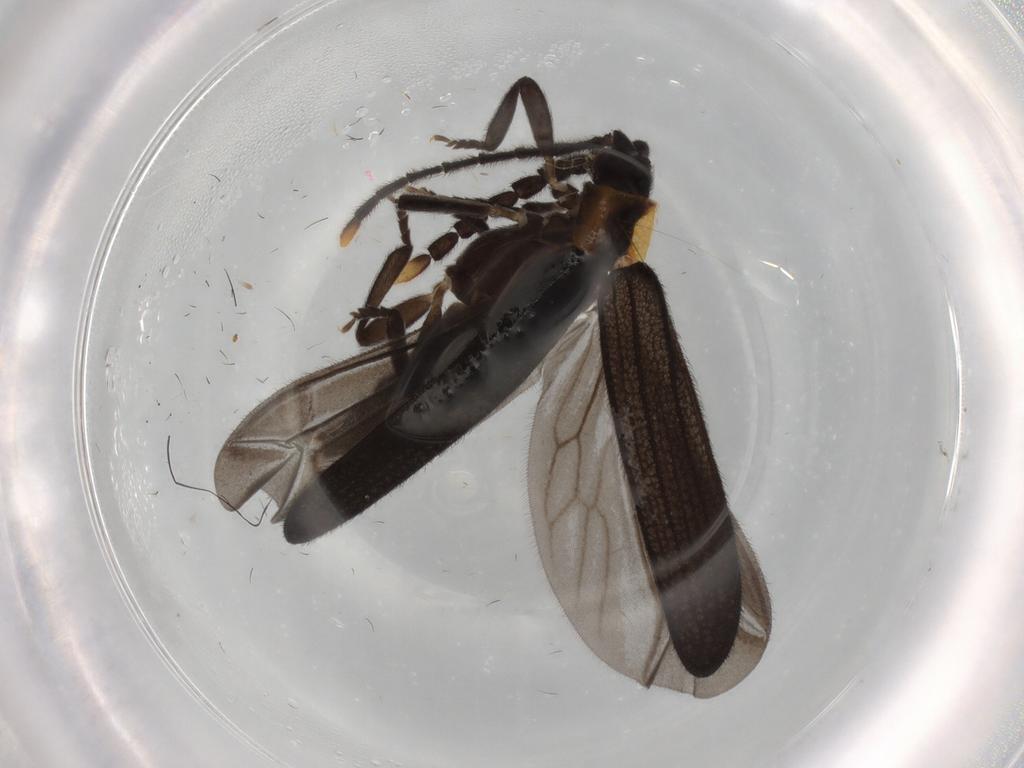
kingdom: Animalia
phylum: Arthropoda
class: Insecta
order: Coleoptera
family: Lycidae
